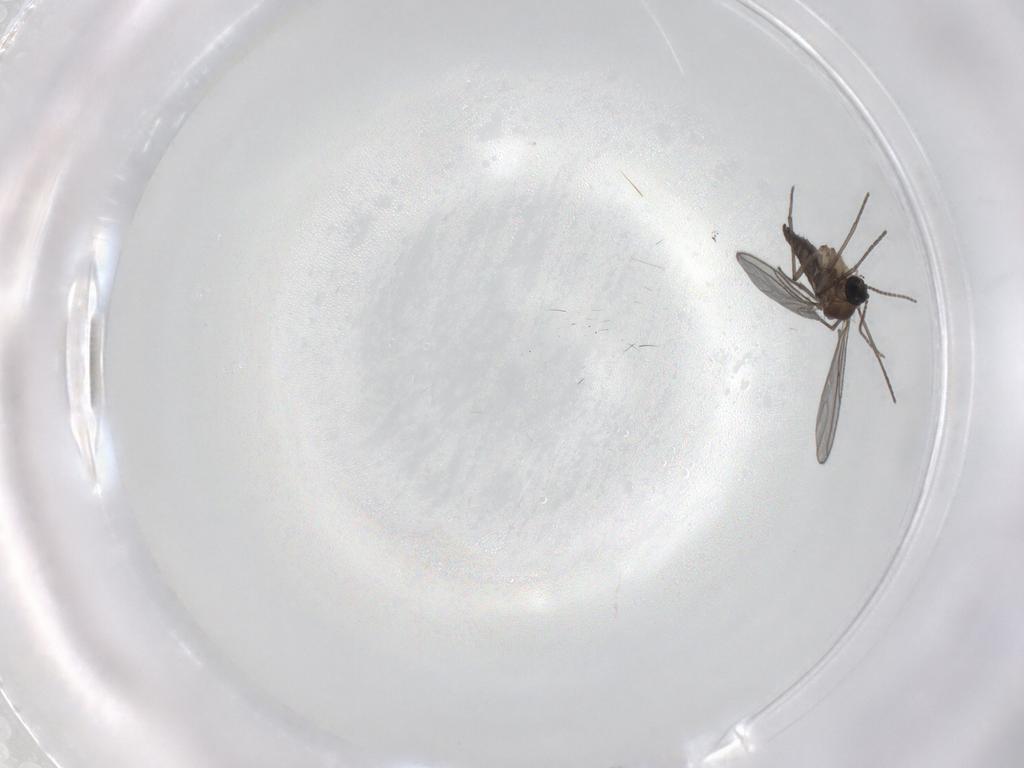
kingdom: Animalia
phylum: Arthropoda
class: Insecta
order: Diptera
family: Sciaridae
